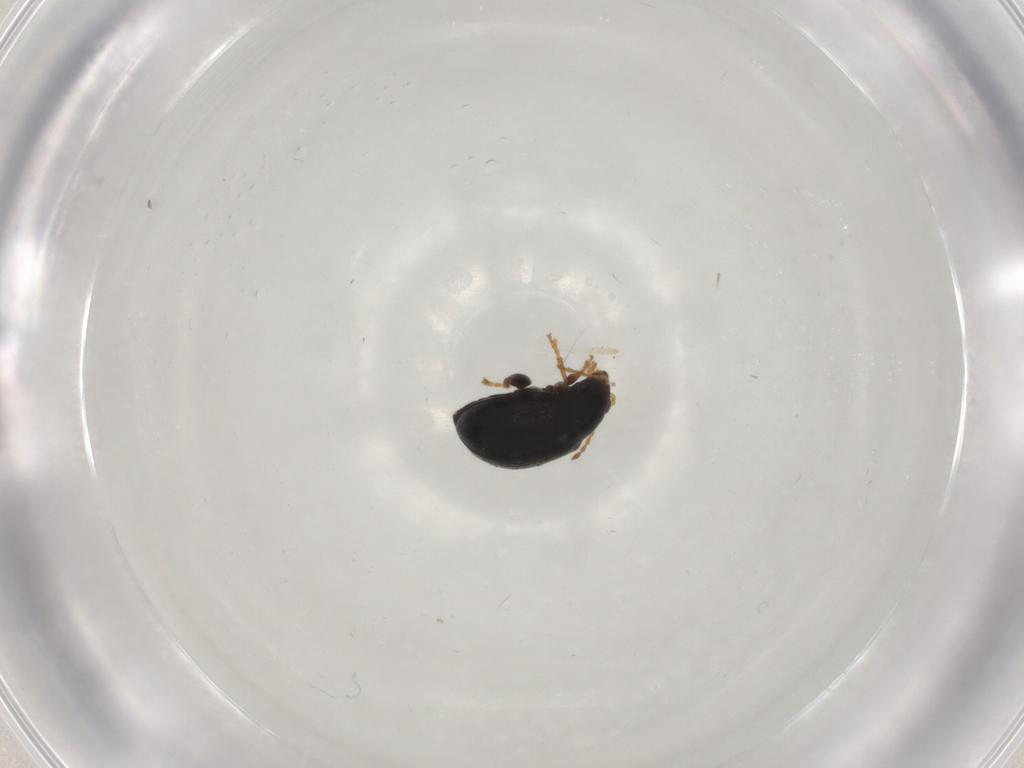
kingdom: Animalia
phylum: Arthropoda
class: Insecta
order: Coleoptera
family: Chrysomelidae
